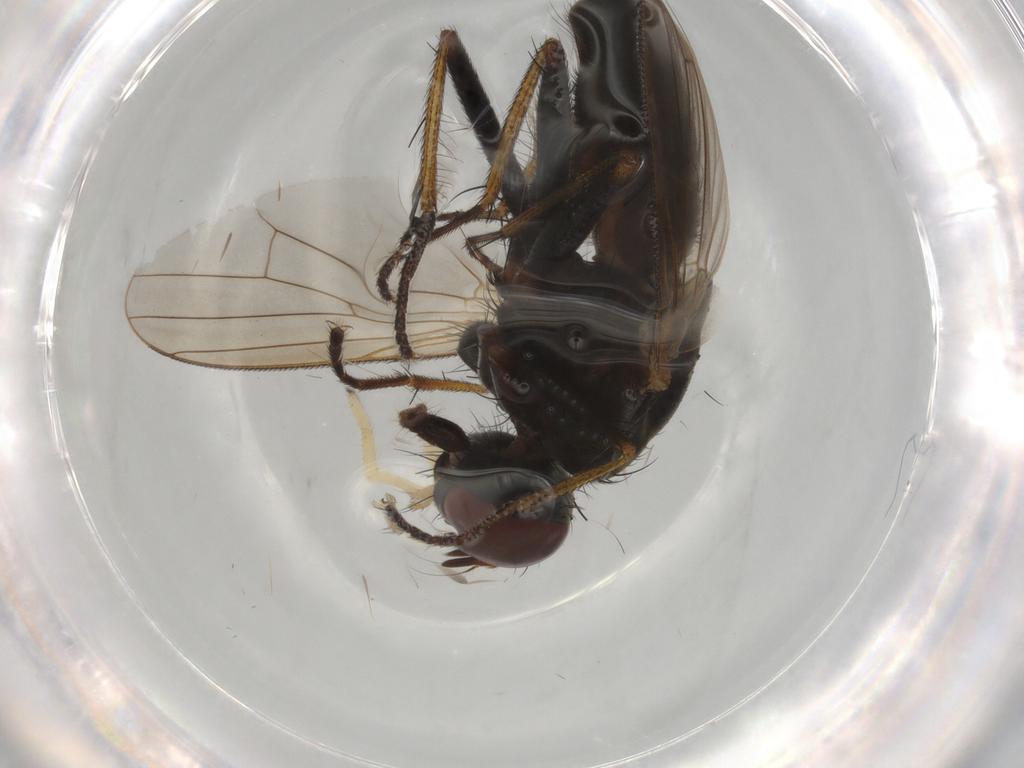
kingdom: Animalia
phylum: Arthropoda
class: Insecta
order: Diptera
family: Muscidae
